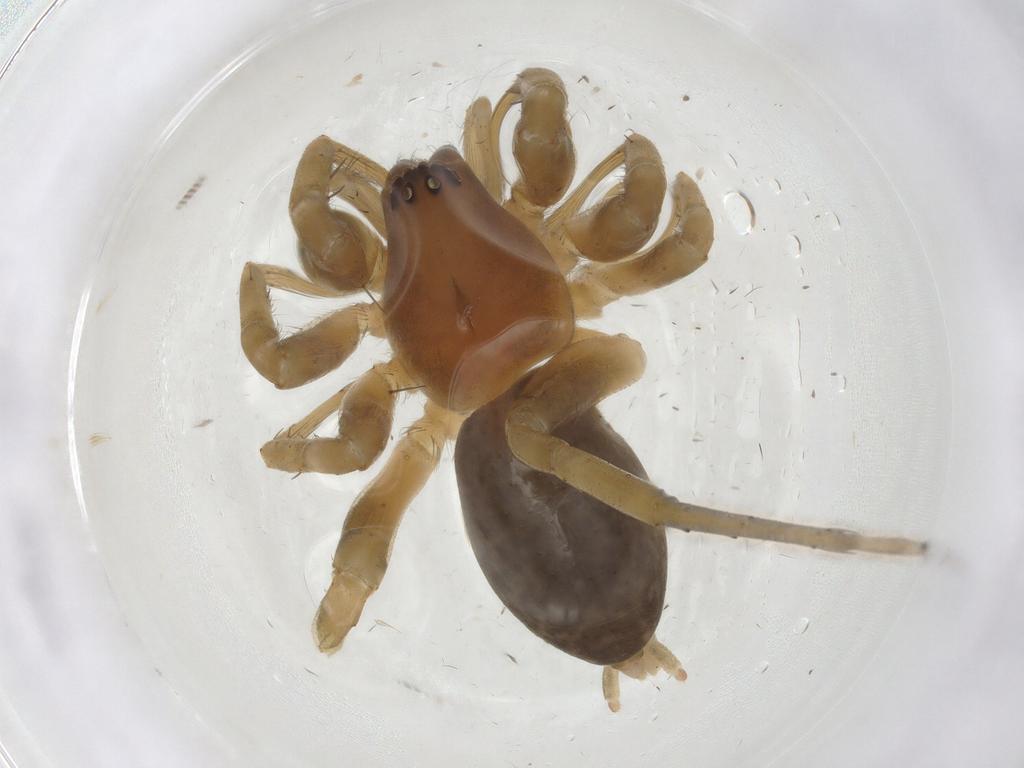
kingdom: Animalia
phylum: Arthropoda
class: Arachnida
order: Araneae
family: Anyphaenidae
